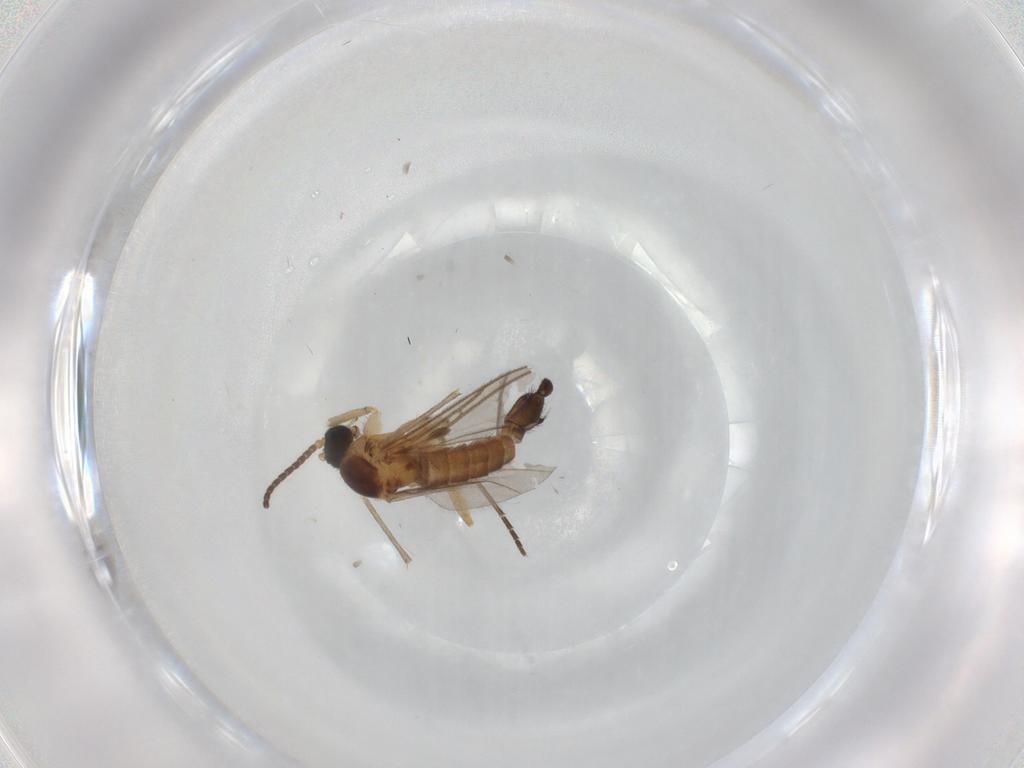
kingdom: Animalia
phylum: Arthropoda
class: Insecta
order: Diptera
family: Sciaridae
